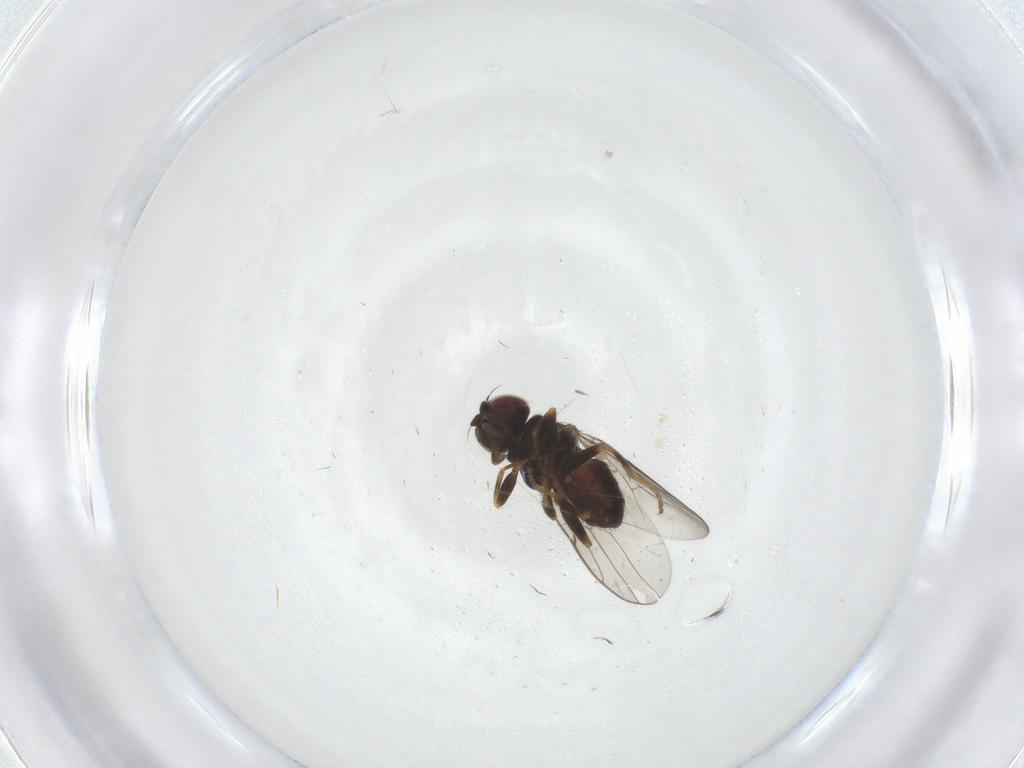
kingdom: Animalia
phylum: Arthropoda
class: Insecta
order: Diptera
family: Chloropidae
